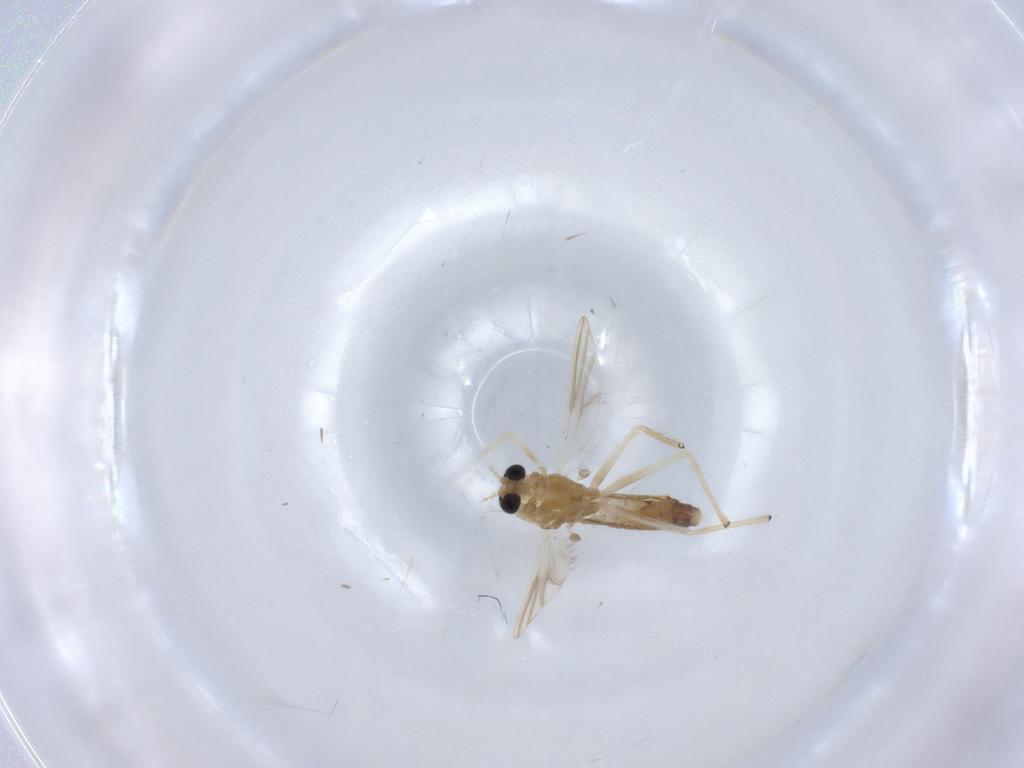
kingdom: Animalia
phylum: Arthropoda
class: Insecta
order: Diptera
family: Chironomidae
